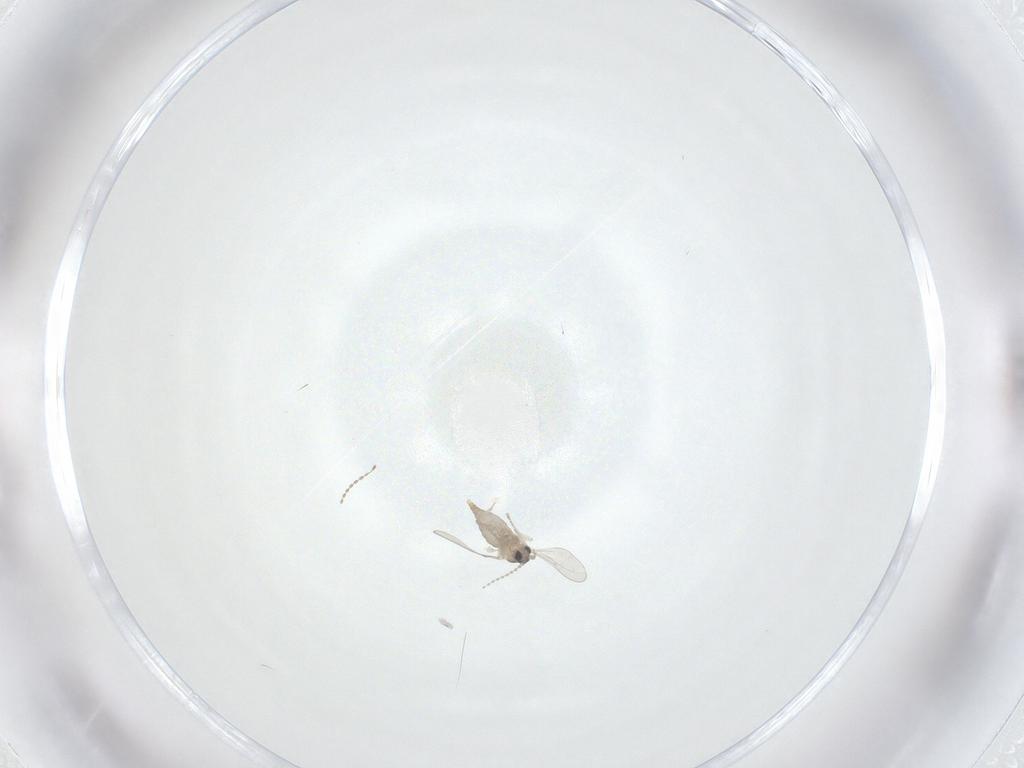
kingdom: Animalia
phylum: Arthropoda
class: Insecta
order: Diptera
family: Cecidomyiidae
